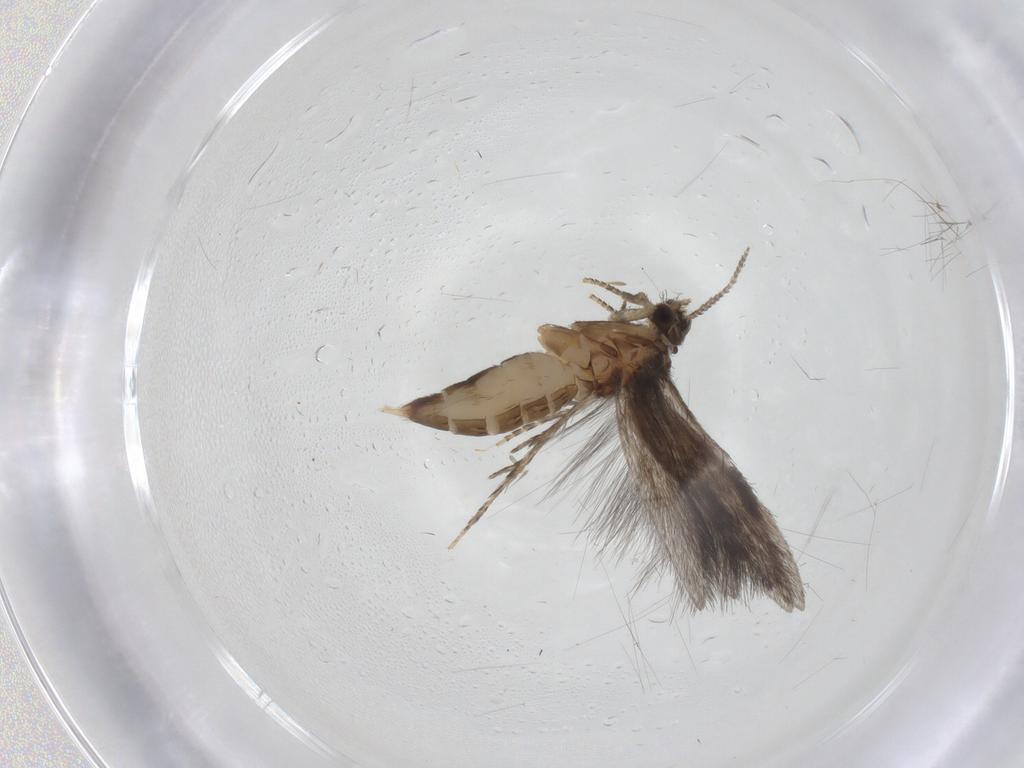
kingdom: Animalia
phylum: Arthropoda
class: Insecta
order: Trichoptera
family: Hydroptilidae
